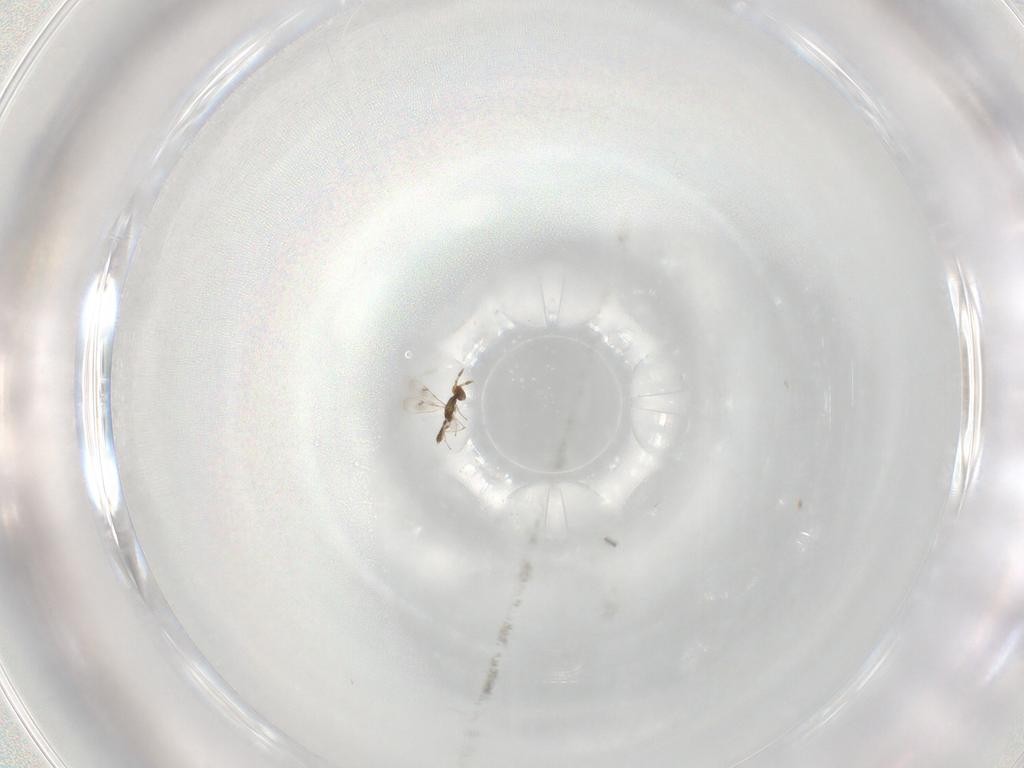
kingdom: Animalia
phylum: Arthropoda
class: Insecta
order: Hymenoptera
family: Eulophidae
